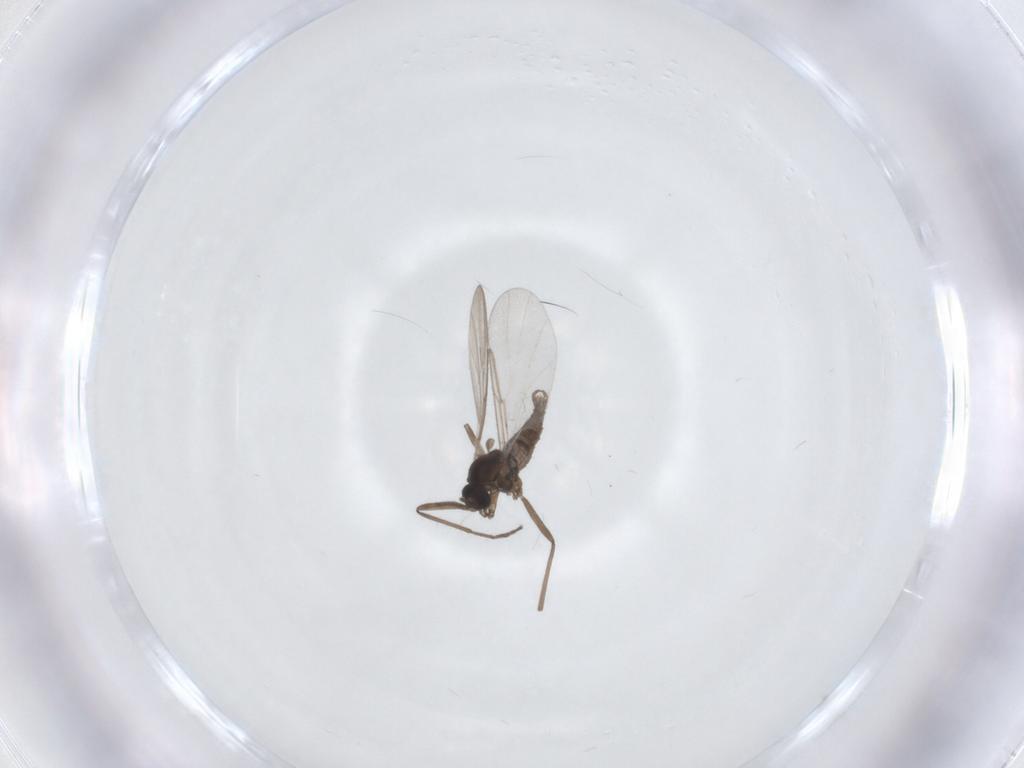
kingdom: Animalia
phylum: Arthropoda
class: Insecta
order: Diptera
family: Cecidomyiidae
